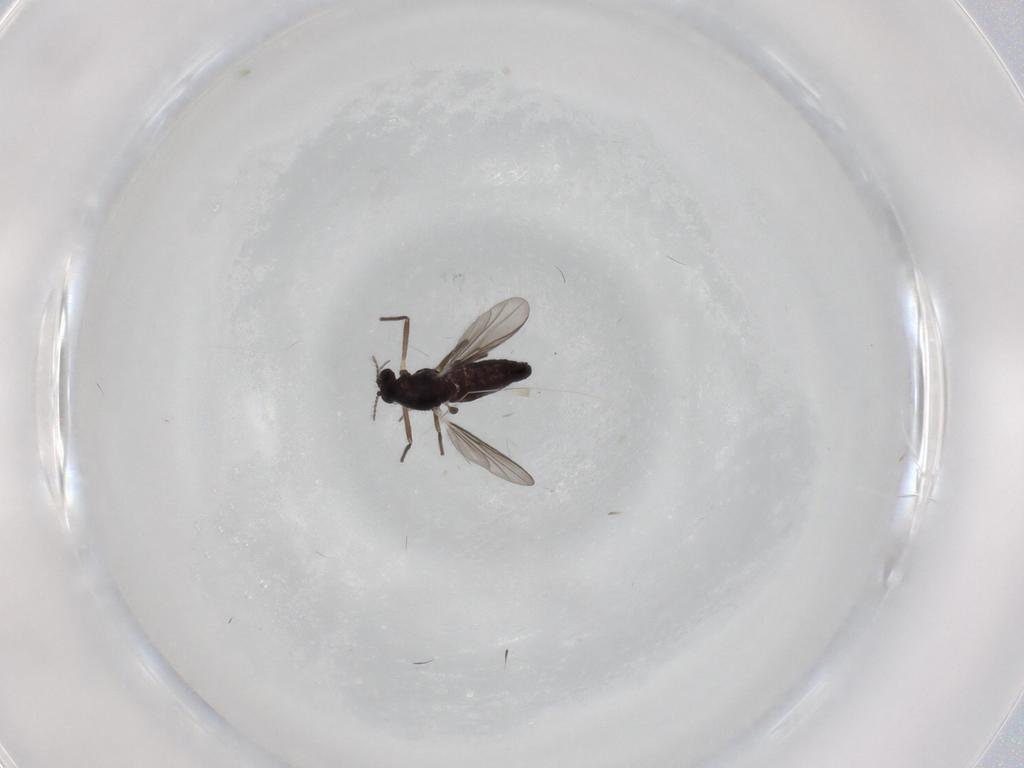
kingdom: Animalia
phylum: Arthropoda
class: Insecta
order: Diptera
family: Chironomidae
